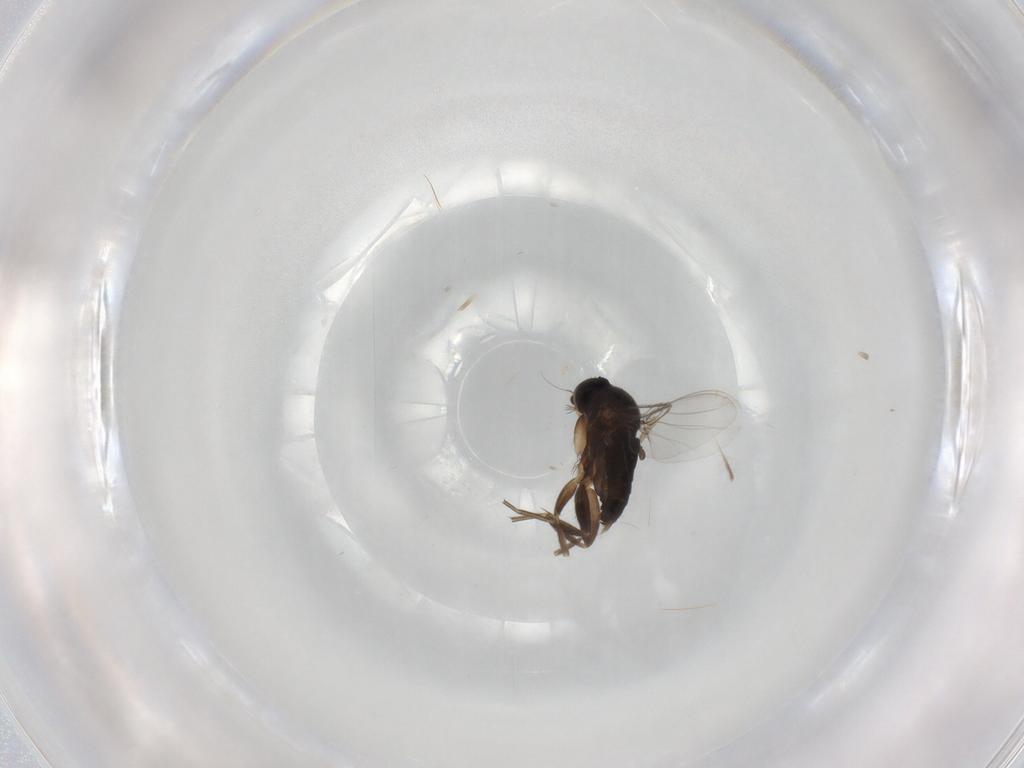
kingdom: Animalia
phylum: Arthropoda
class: Insecta
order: Diptera
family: Phoridae
